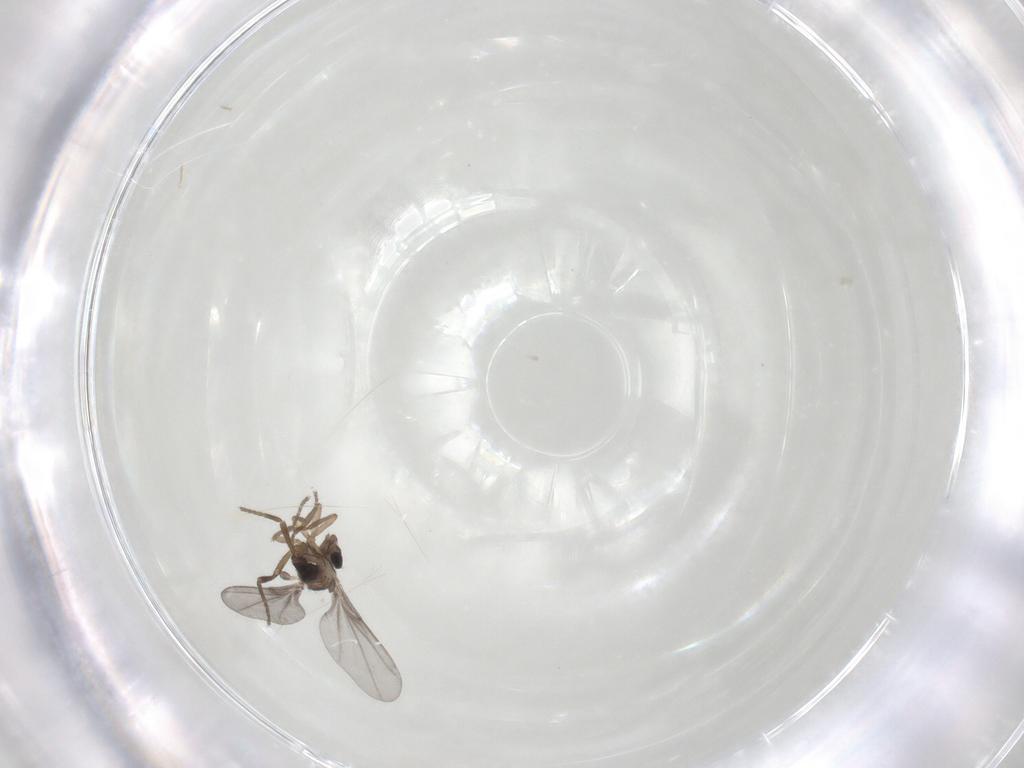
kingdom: Animalia
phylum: Arthropoda
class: Insecta
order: Diptera
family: Phoridae
